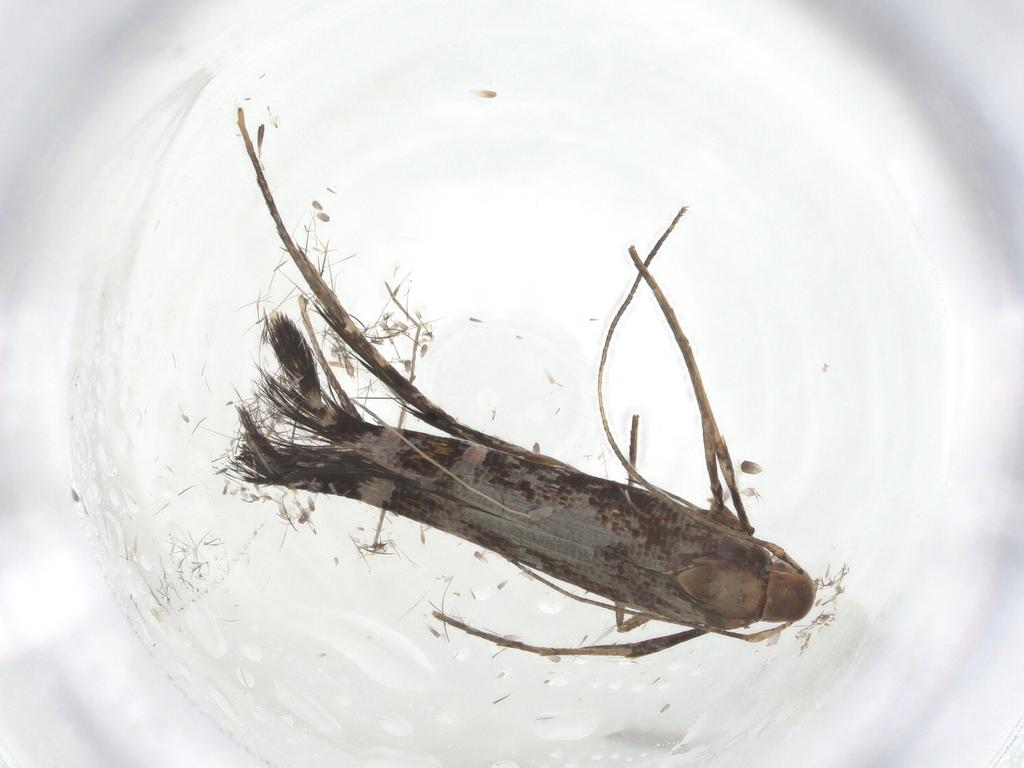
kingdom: Animalia
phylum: Arthropoda
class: Insecta
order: Lepidoptera
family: Cosmopterigidae
